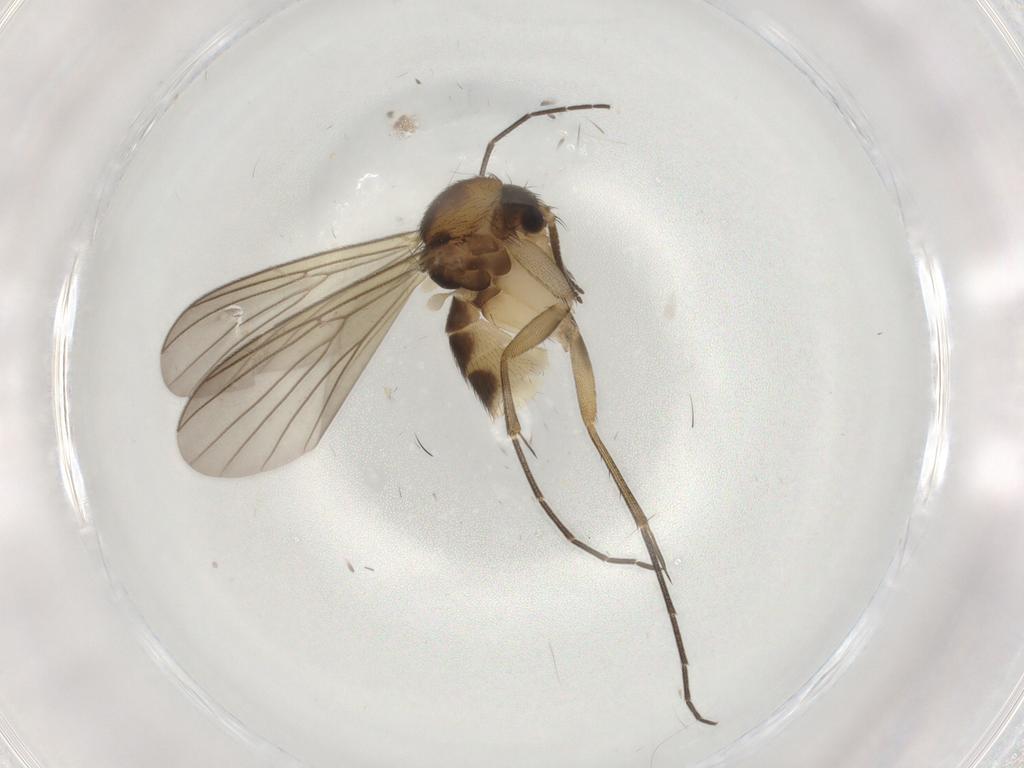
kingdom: Animalia
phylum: Arthropoda
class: Insecta
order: Diptera
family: Mycetophilidae
